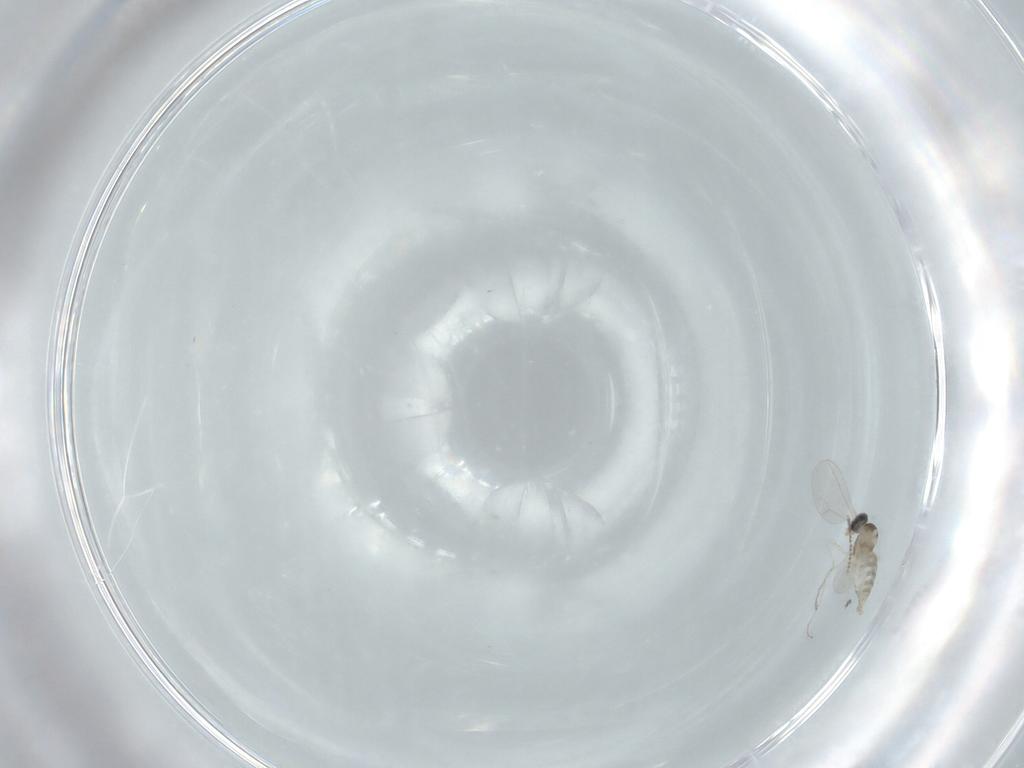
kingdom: Animalia
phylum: Arthropoda
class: Insecta
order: Diptera
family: Cecidomyiidae
